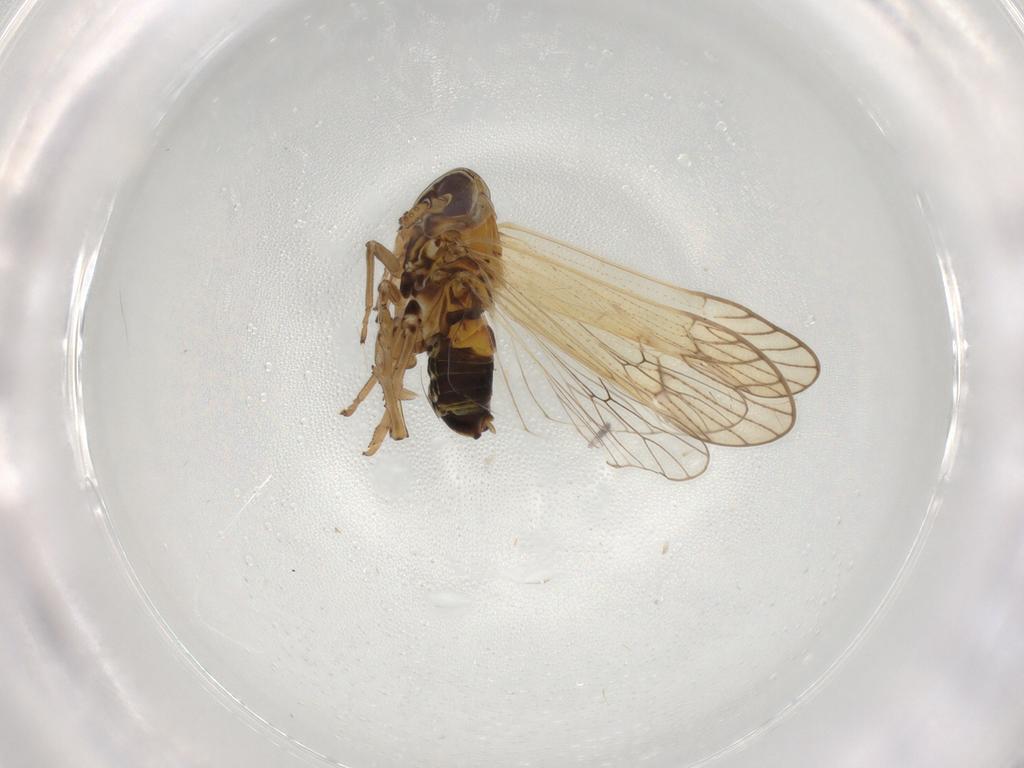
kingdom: Animalia
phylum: Arthropoda
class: Insecta
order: Hemiptera
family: Delphacidae
